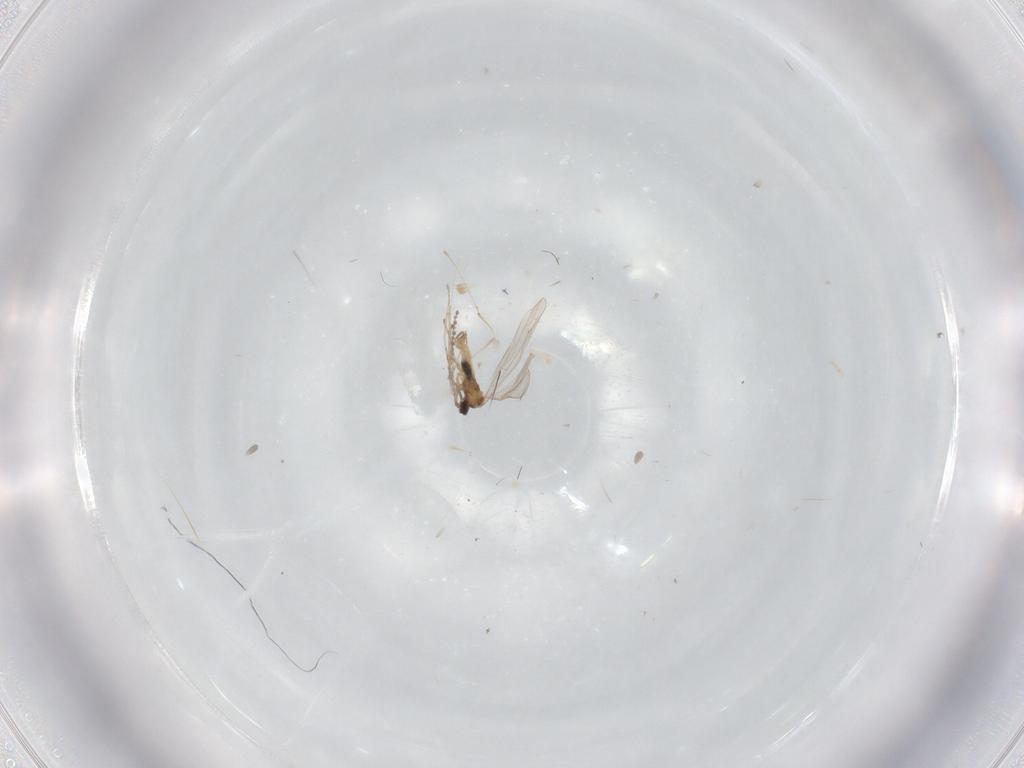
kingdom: Animalia
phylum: Arthropoda
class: Insecta
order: Diptera
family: Cecidomyiidae
